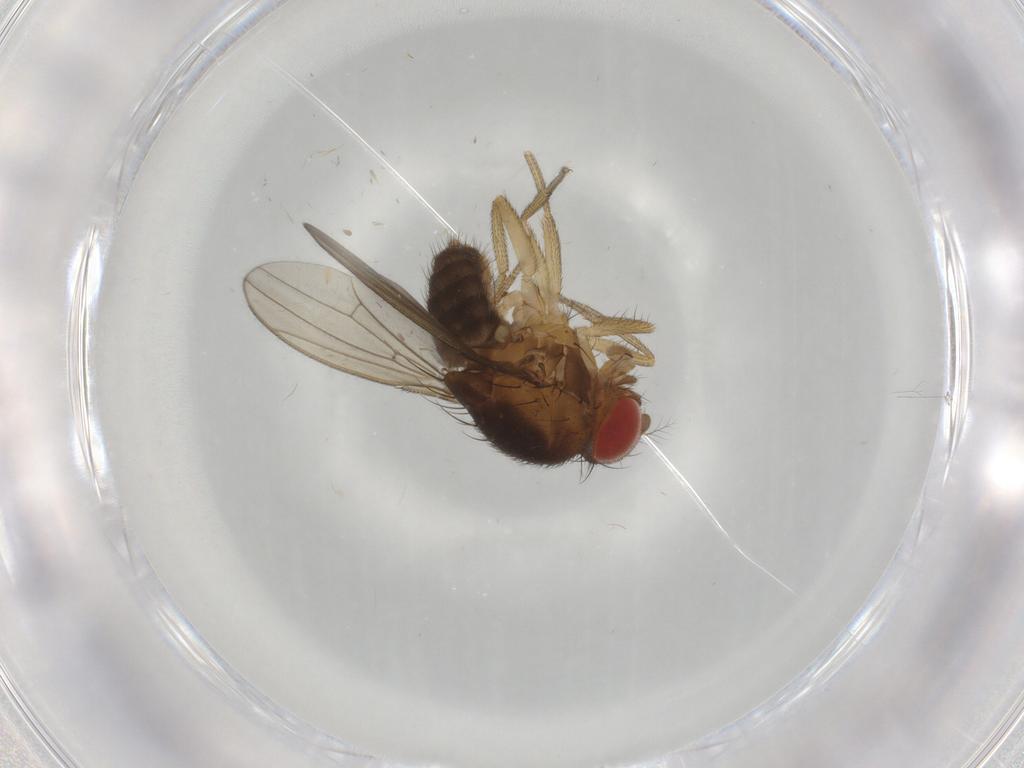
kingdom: Animalia
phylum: Arthropoda
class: Insecta
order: Diptera
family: Drosophilidae
